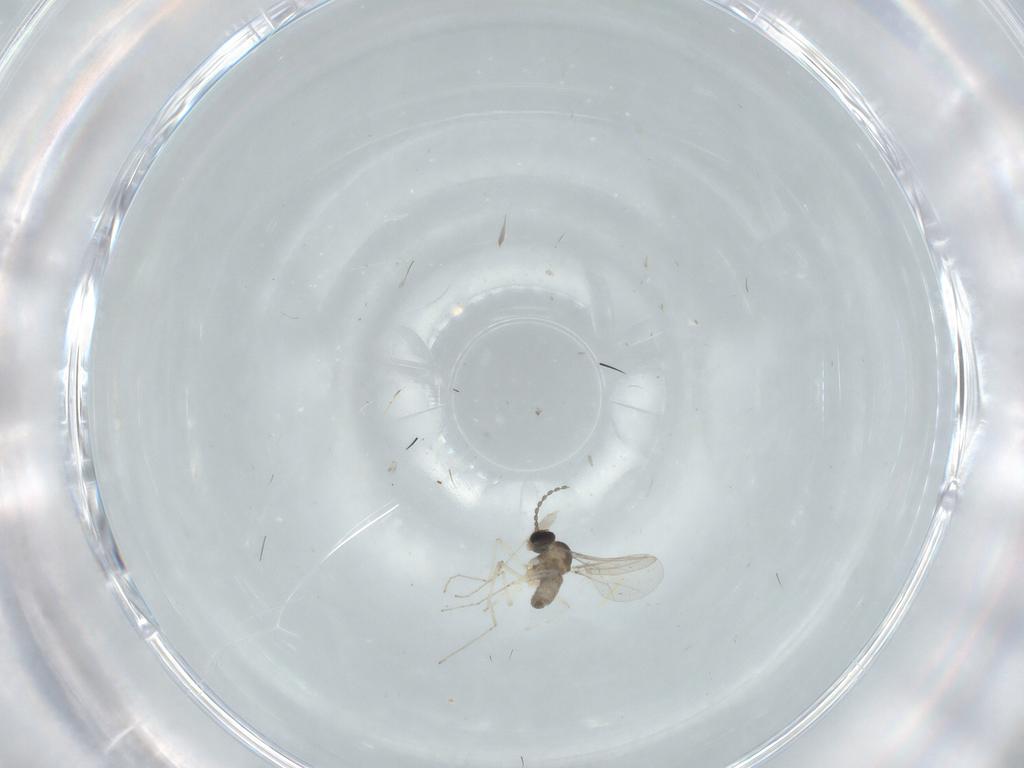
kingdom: Animalia
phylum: Arthropoda
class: Insecta
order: Diptera
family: Cecidomyiidae
